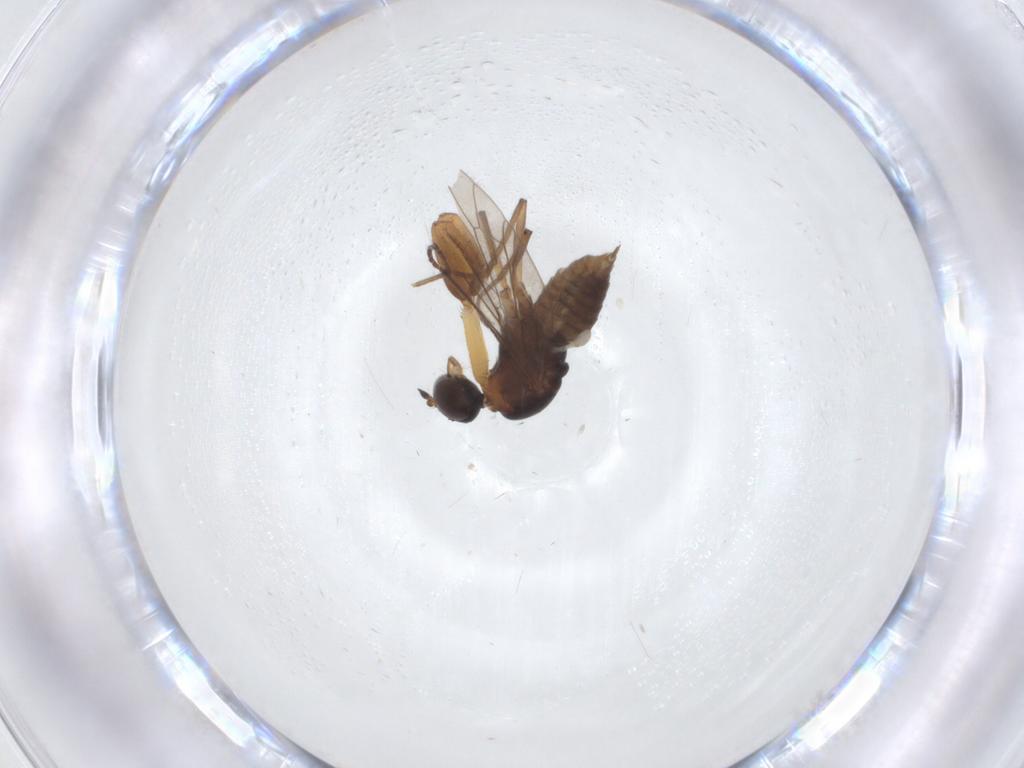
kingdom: Animalia
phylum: Arthropoda
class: Insecta
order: Diptera
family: Empididae
